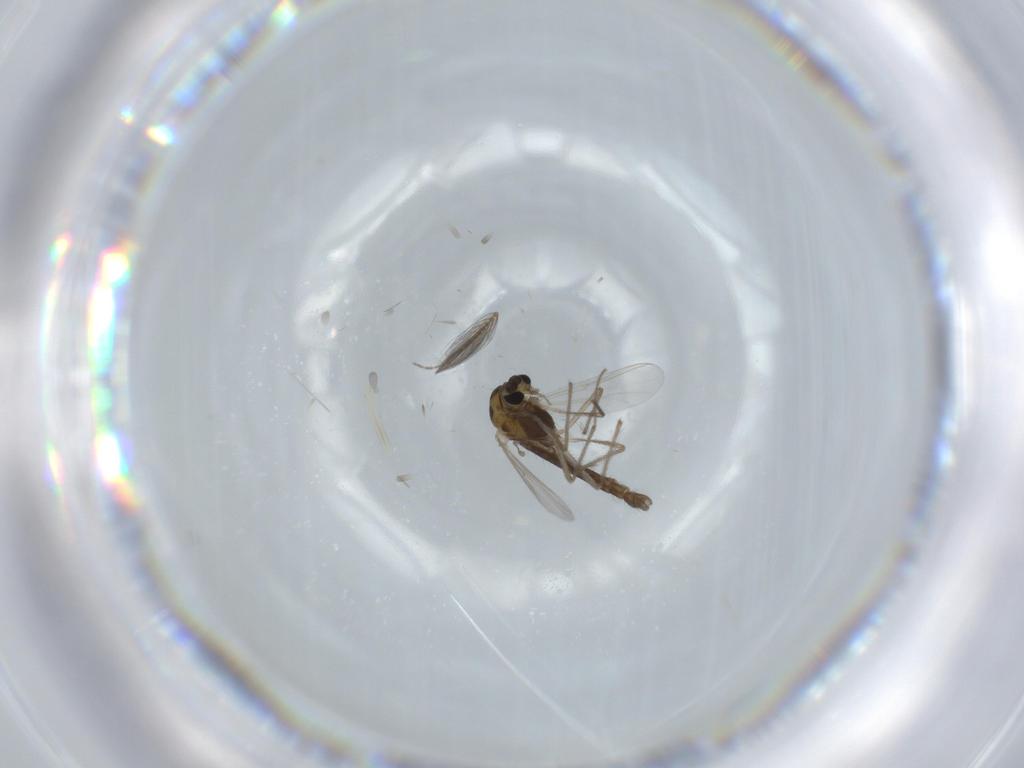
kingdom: Animalia
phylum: Arthropoda
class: Insecta
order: Diptera
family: Chironomidae
